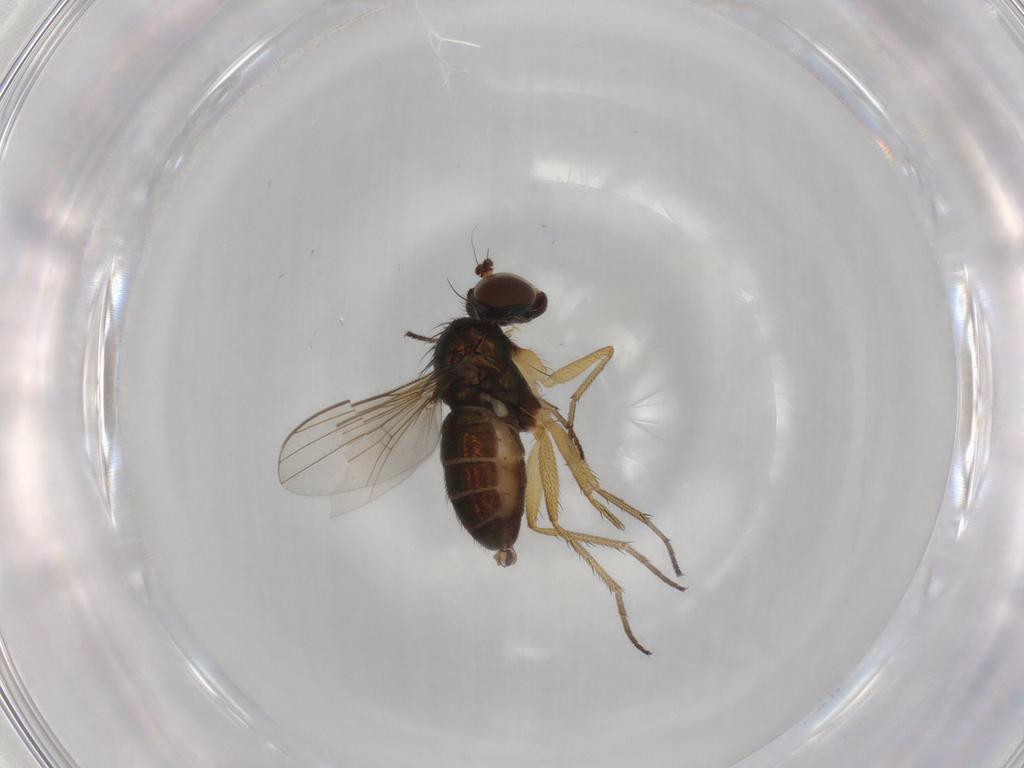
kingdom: Animalia
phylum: Arthropoda
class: Insecta
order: Diptera
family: Dolichopodidae
